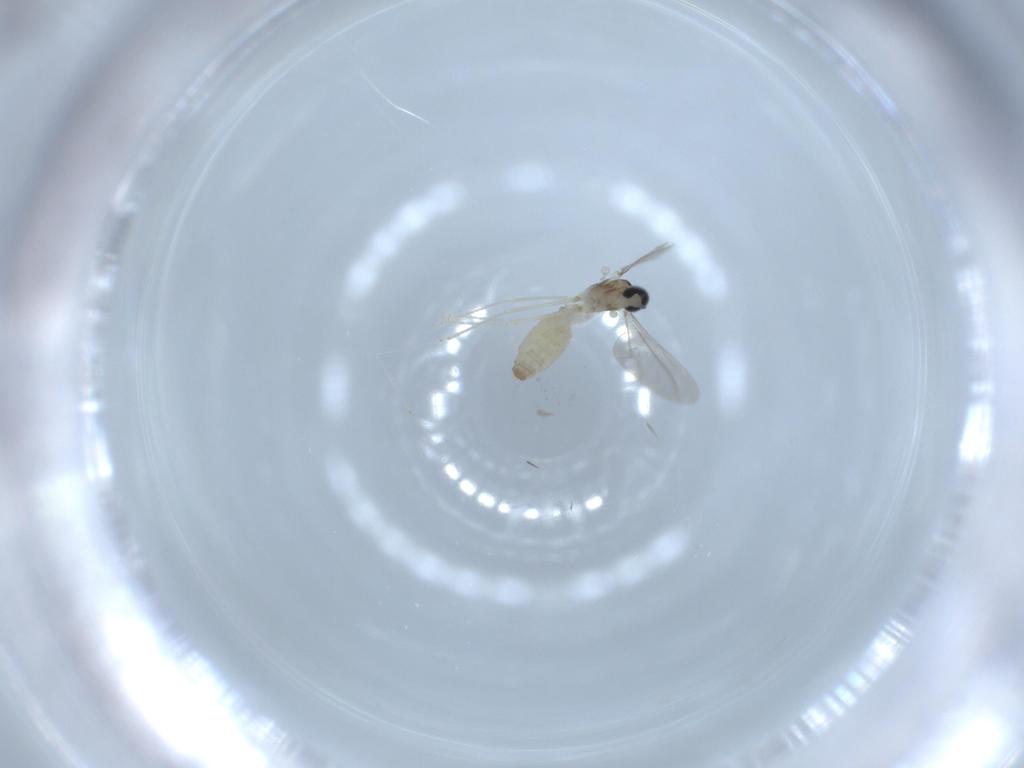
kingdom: Animalia
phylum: Arthropoda
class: Insecta
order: Diptera
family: Cecidomyiidae
